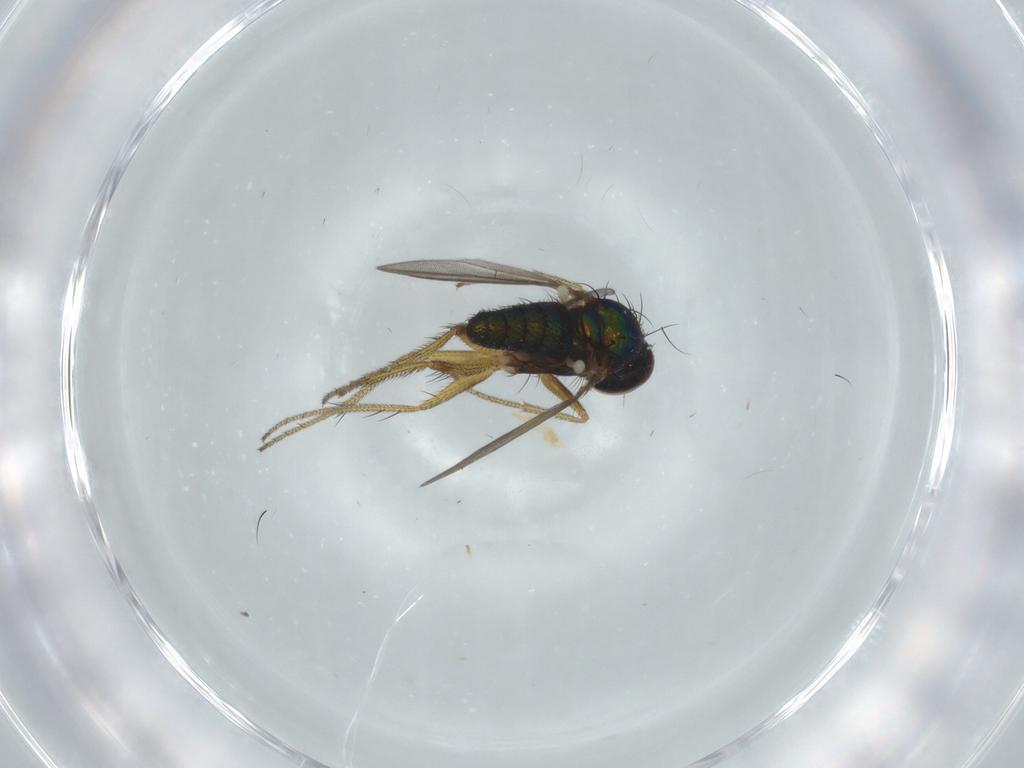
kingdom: Animalia
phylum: Arthropoda
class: Insecta
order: Diptera
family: Dolichopodidae
